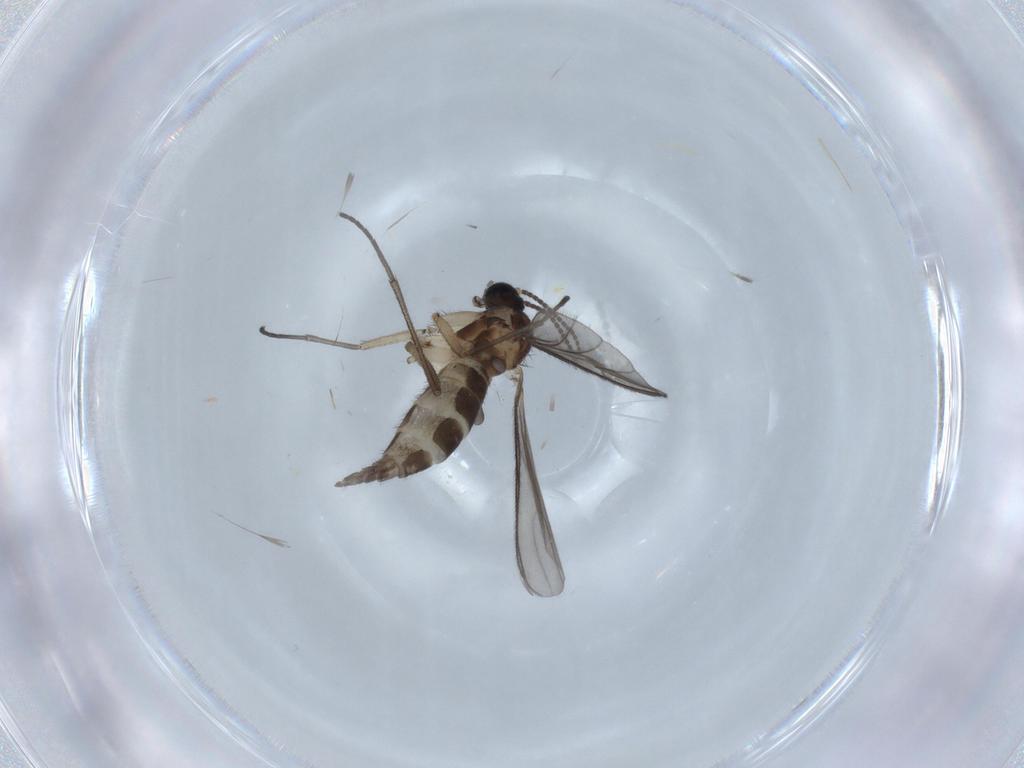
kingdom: Animalia
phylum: Arthropoda
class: Insecta
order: Diptera
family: Sciaridae
